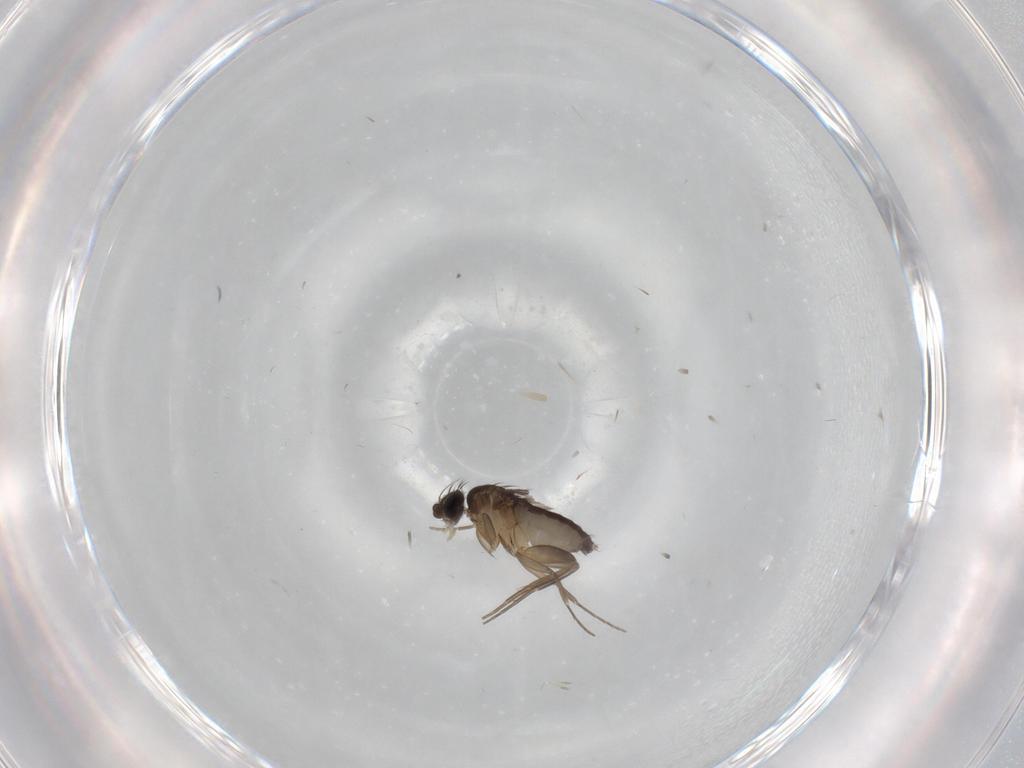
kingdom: Animalia
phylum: Arthropoda
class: Insecta
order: Diptera
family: Phoridae
